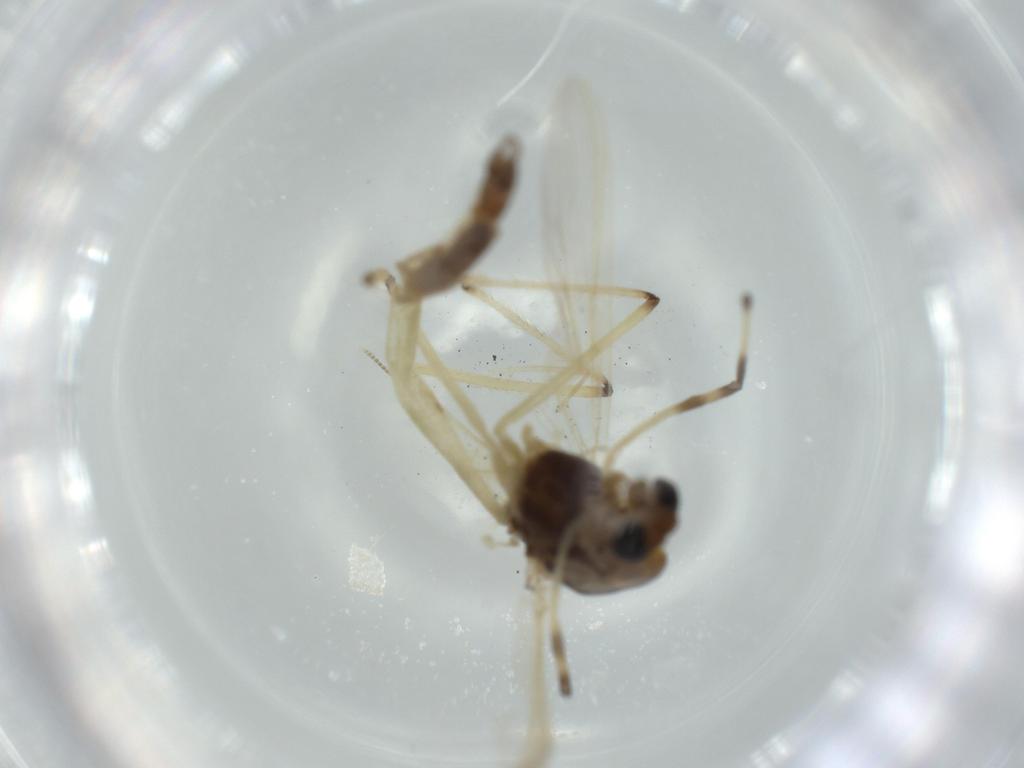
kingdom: Animalia
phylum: Arthropoda
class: Insecta
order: Diptera
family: Chironomidae
